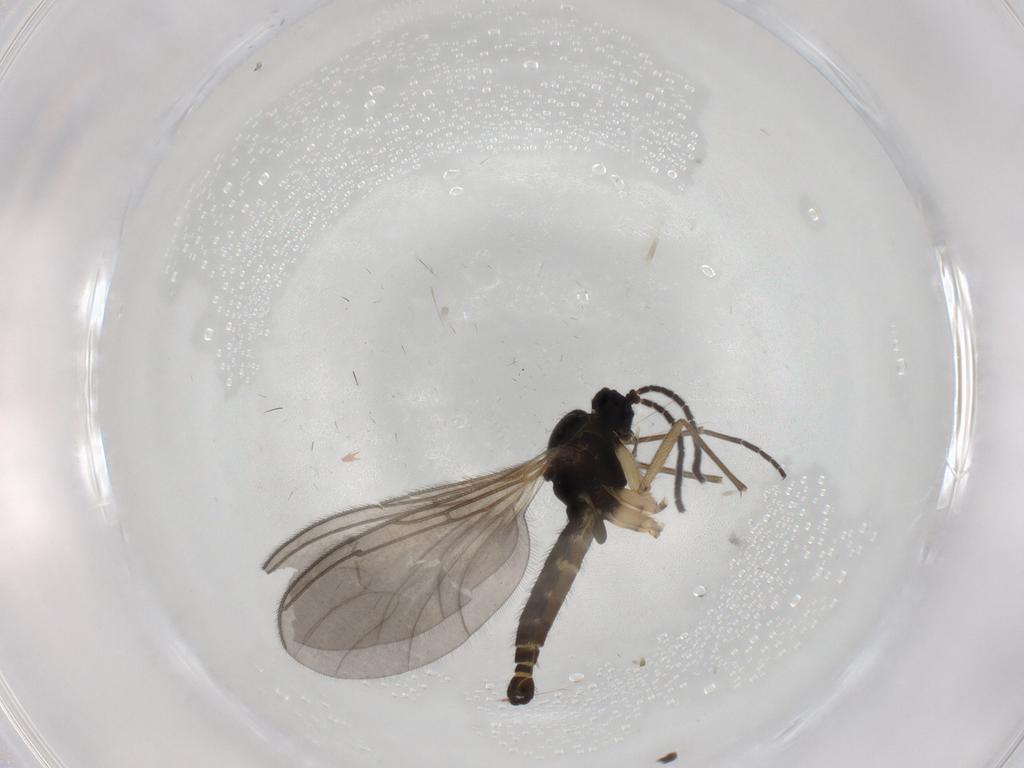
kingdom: Animalia
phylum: Arthropoda
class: Insecta
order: Diptera
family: Sciaridae
